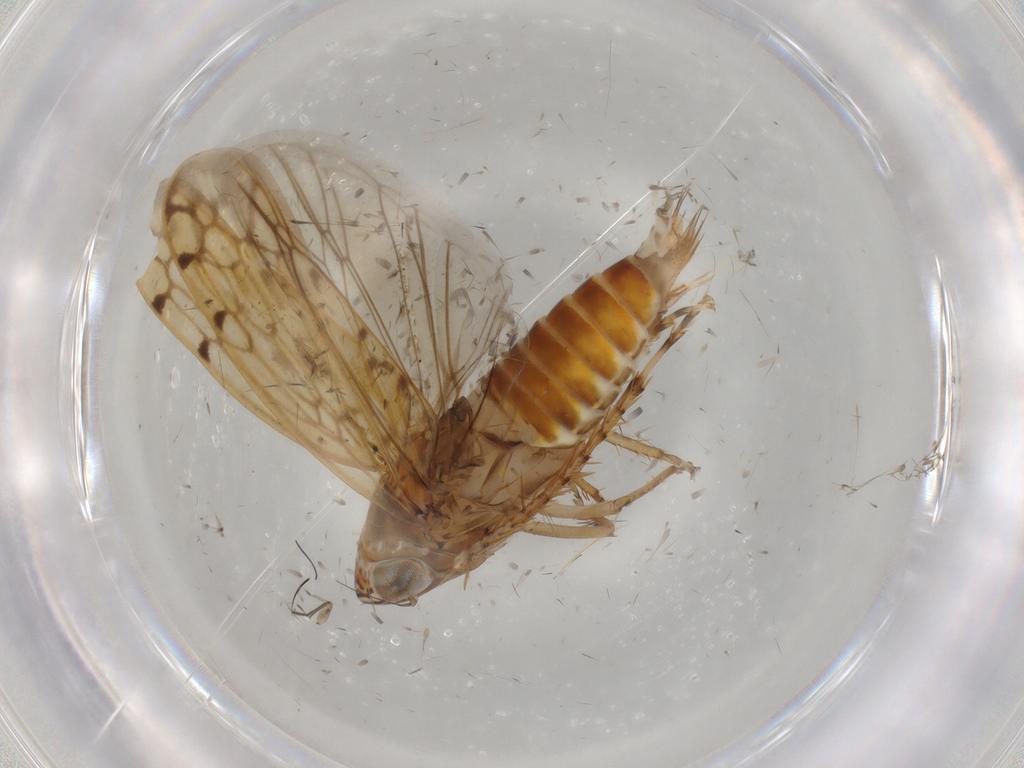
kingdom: Animalia
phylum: Arthropoda
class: Insecta
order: Hemiptera
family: Cicadellidae
